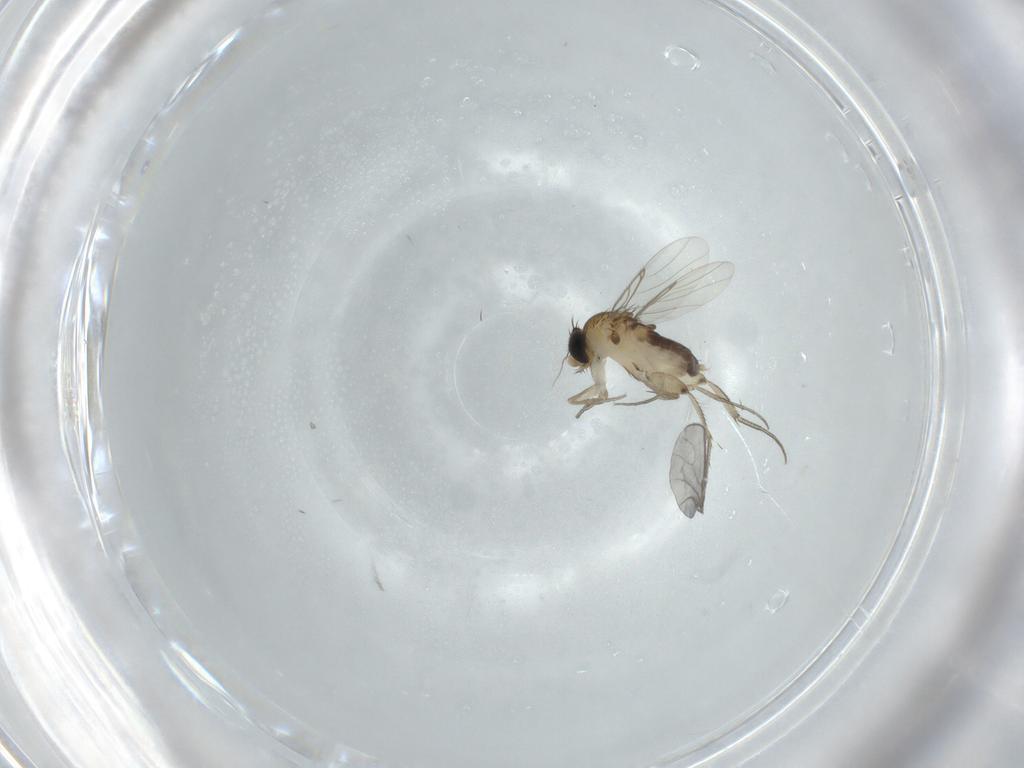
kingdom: Animalia
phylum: Arthropoda
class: Insecta
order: Diptera
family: Phoridae
